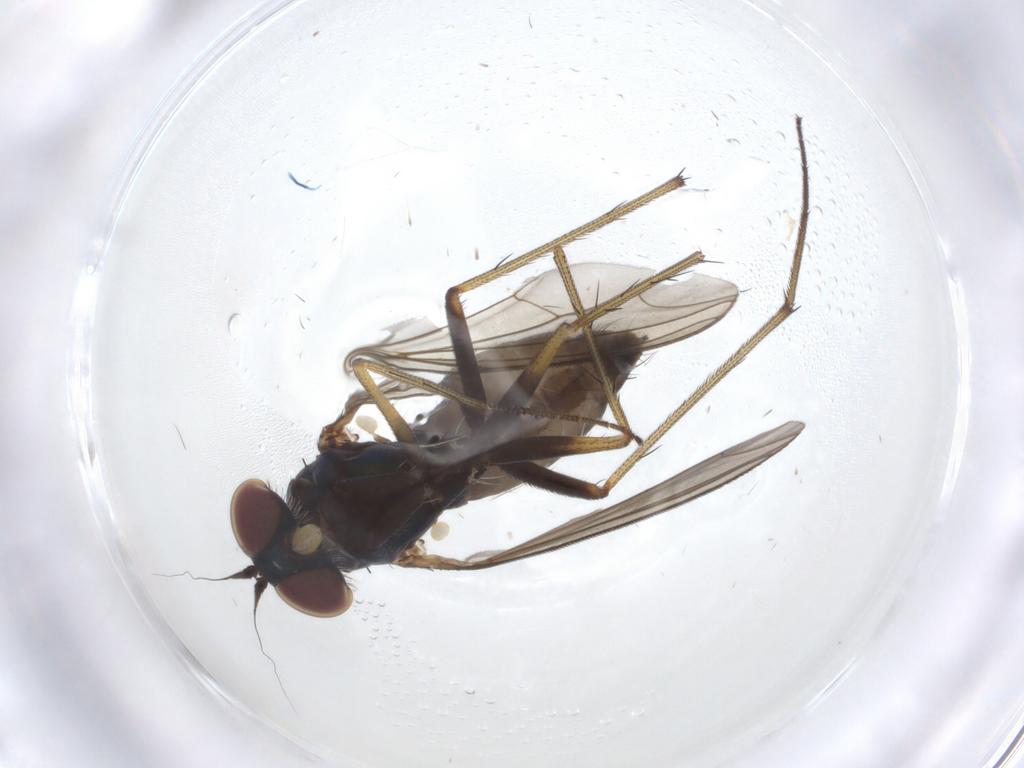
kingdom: Animalia
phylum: Arthropoda
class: Insecta
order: Diptera
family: Dolichopodidae
